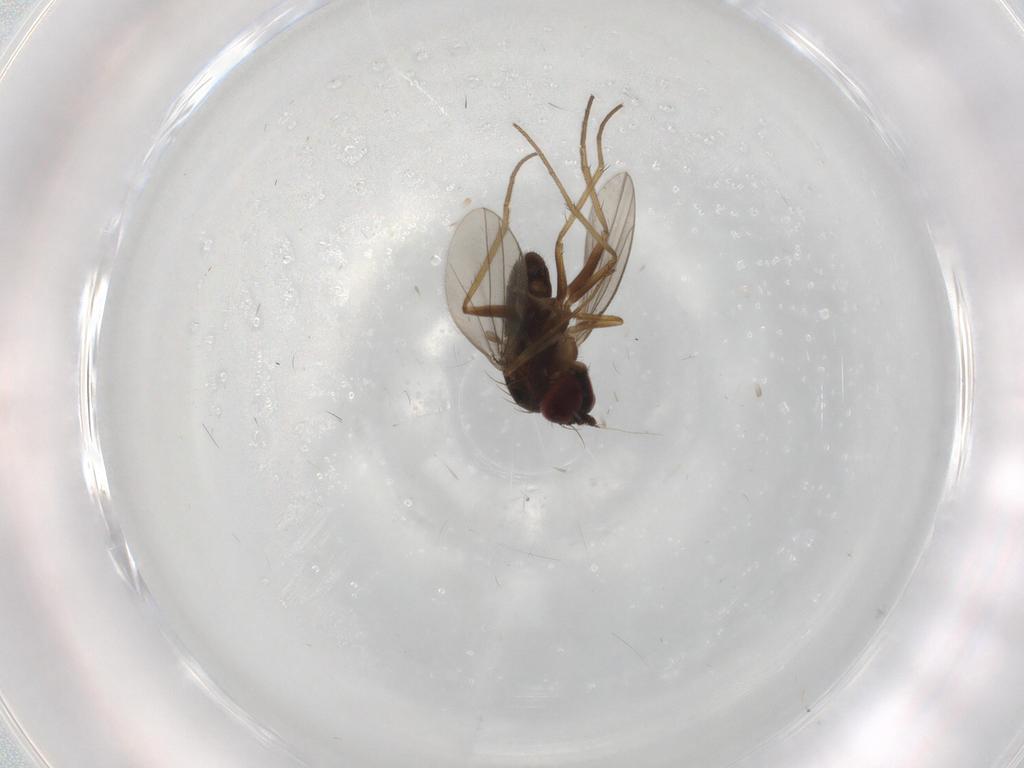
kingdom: Animalia
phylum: Arthropoda
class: Insecta
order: Diptera
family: Dolichopodidae
